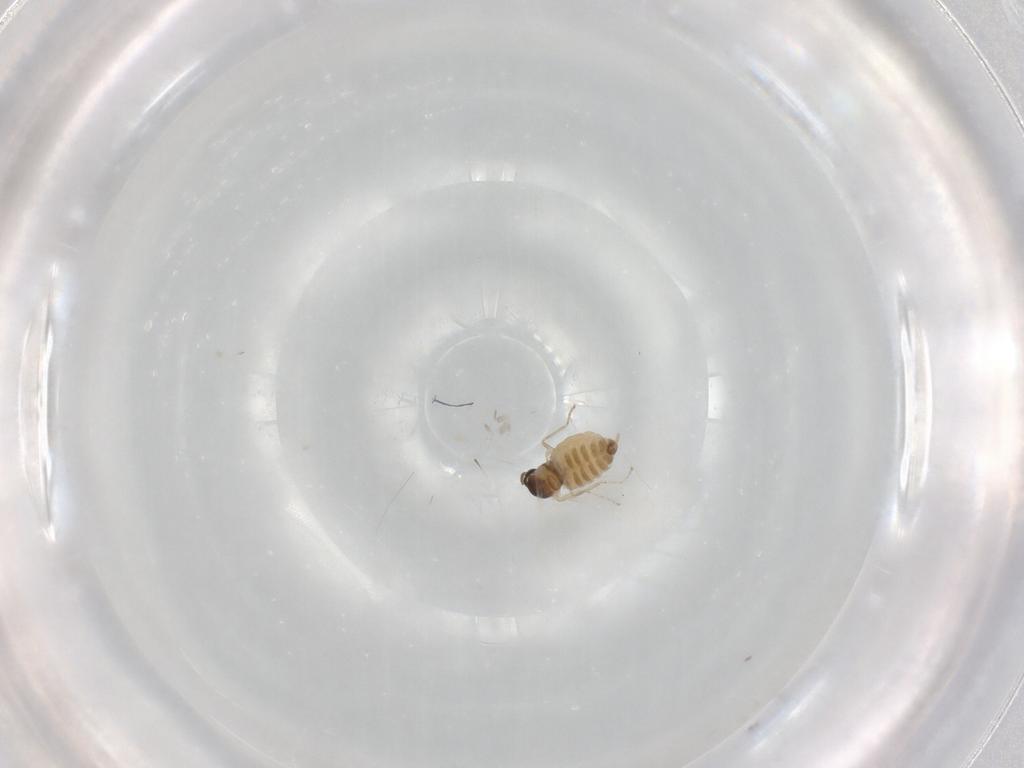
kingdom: Animalia
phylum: Arthropoda
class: Insecta
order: Diptera
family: Cecidomyiidae
